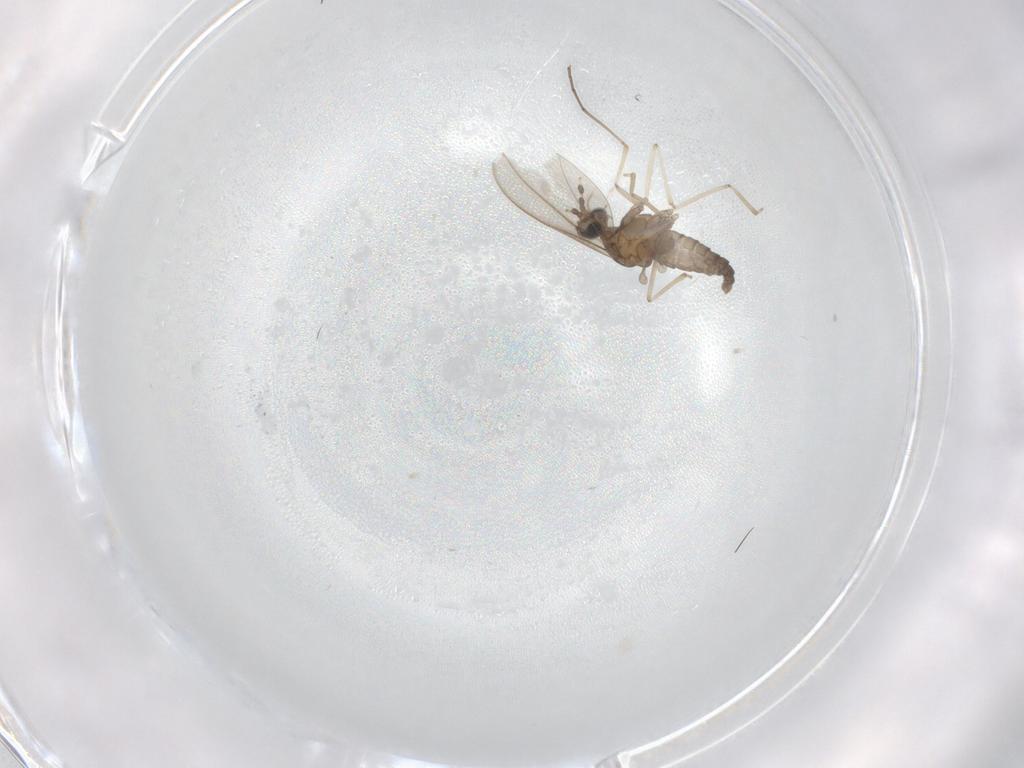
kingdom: Animalia
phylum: Arthropoda
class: Insecta
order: Diptera
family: Cecidomyiidae
